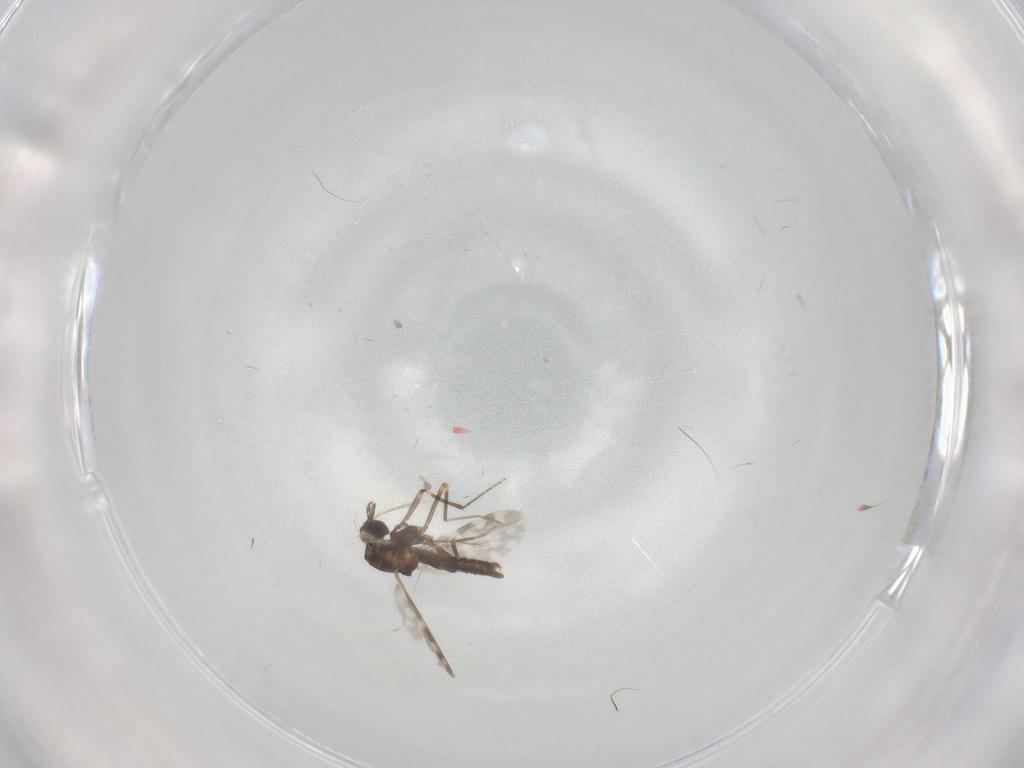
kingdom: Animalia
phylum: Arthropoda
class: Insecta
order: Diptera
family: Ceratopogonidae
